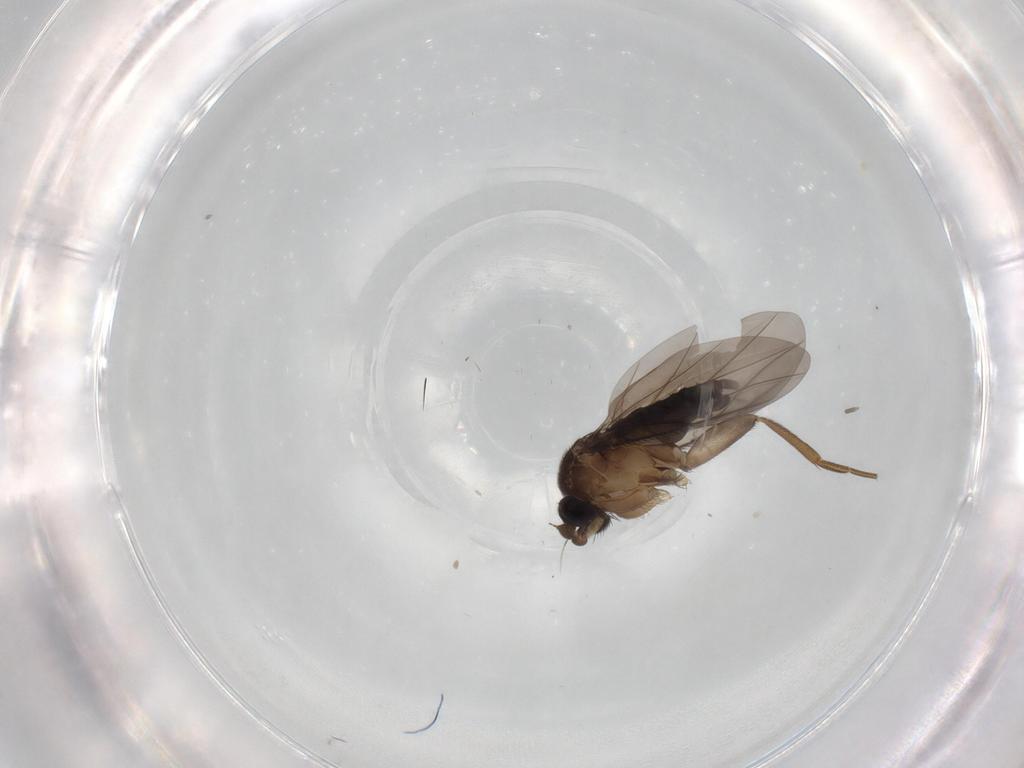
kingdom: Animalia
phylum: Arthropoda
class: Insecta
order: Diptera
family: Phoridae
